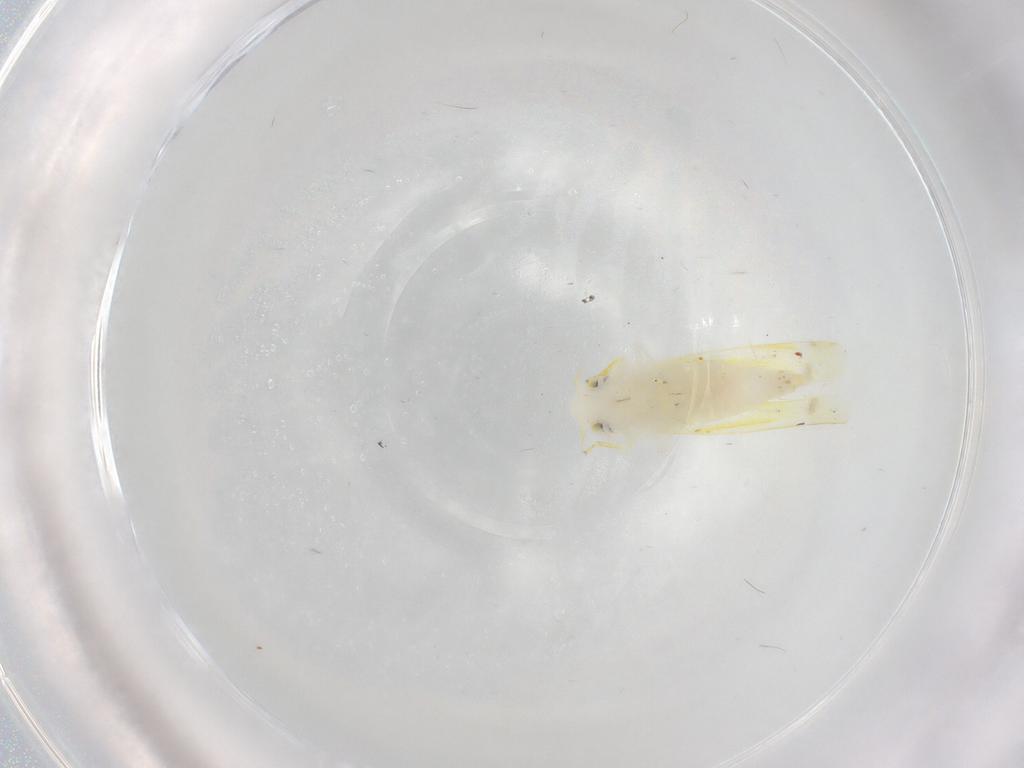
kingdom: Animalia
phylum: Arthropoda
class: Insecta
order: Hemiptera
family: Cicadellidae
